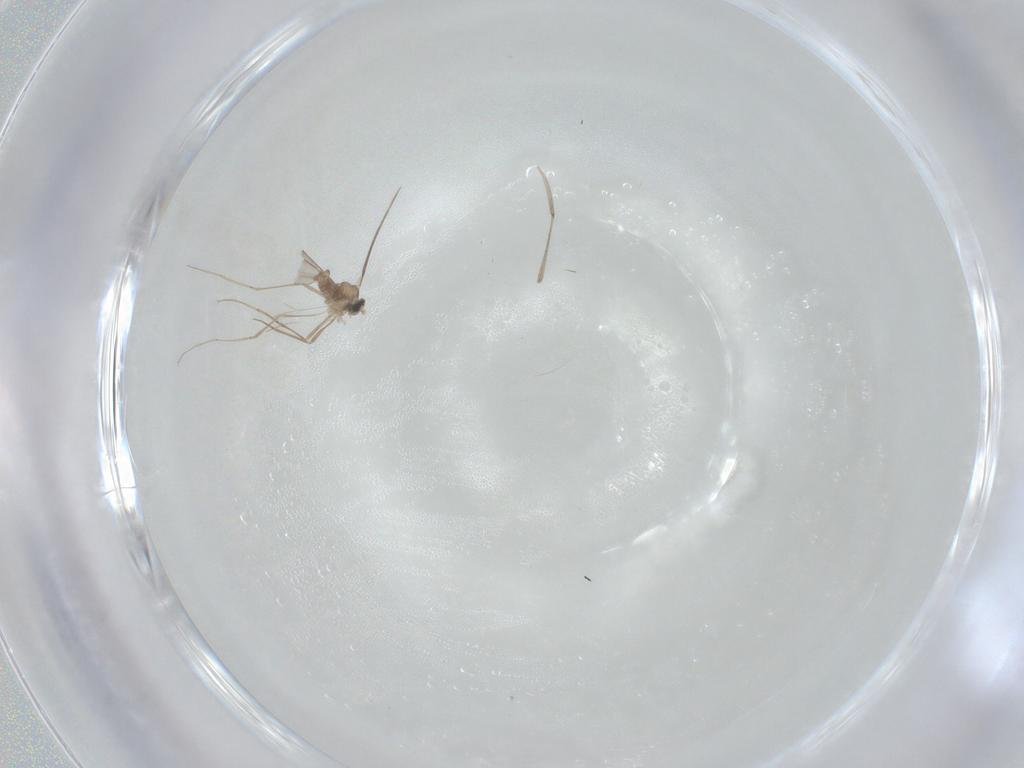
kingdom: Animalia
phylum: Arthropoda
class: Insecta
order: Diptera
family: Cecidomyiidae
